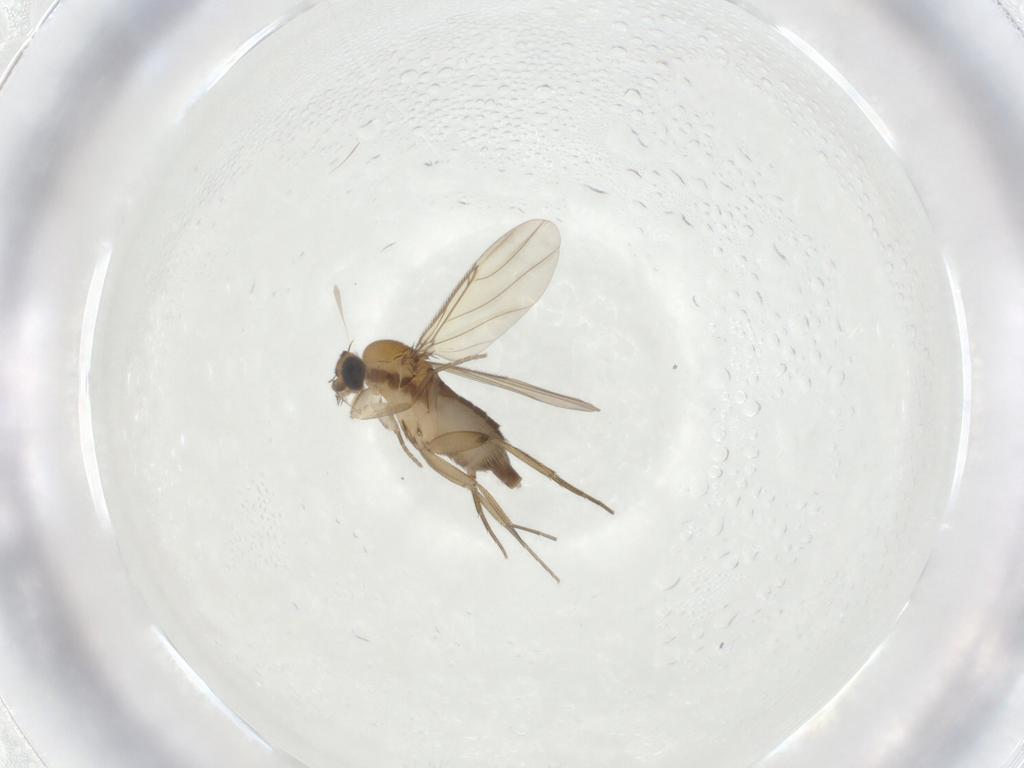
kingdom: Animalia
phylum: Arthropoda
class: Insecta
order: Diptera
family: Phoridae
